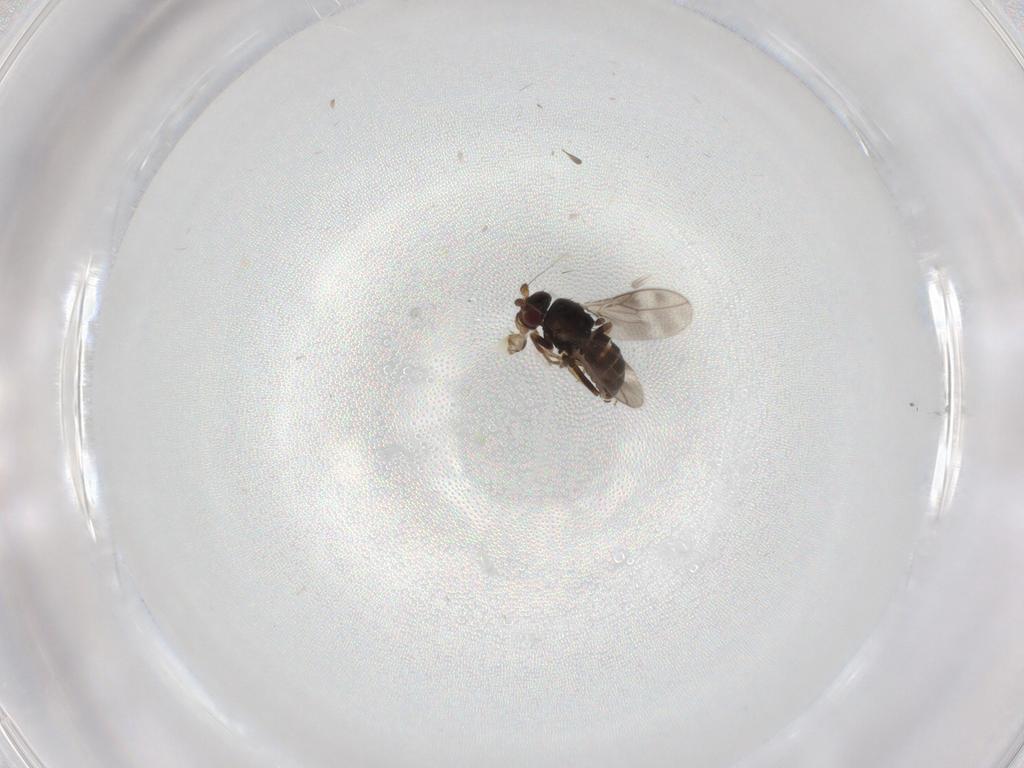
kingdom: Animalia
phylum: Arthropoda
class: Insecta
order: Diptera
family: Sphaeroceridae
